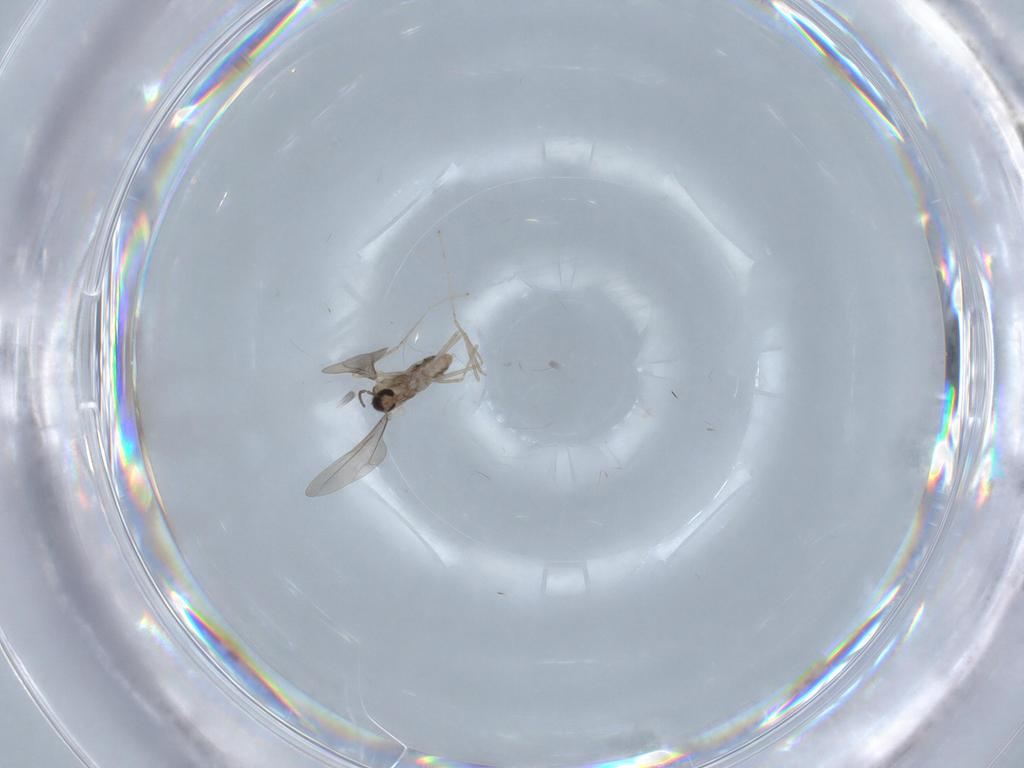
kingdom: Animalia
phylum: Arthropoda
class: Insecta
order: Diptera
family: Cecidomyiidae
